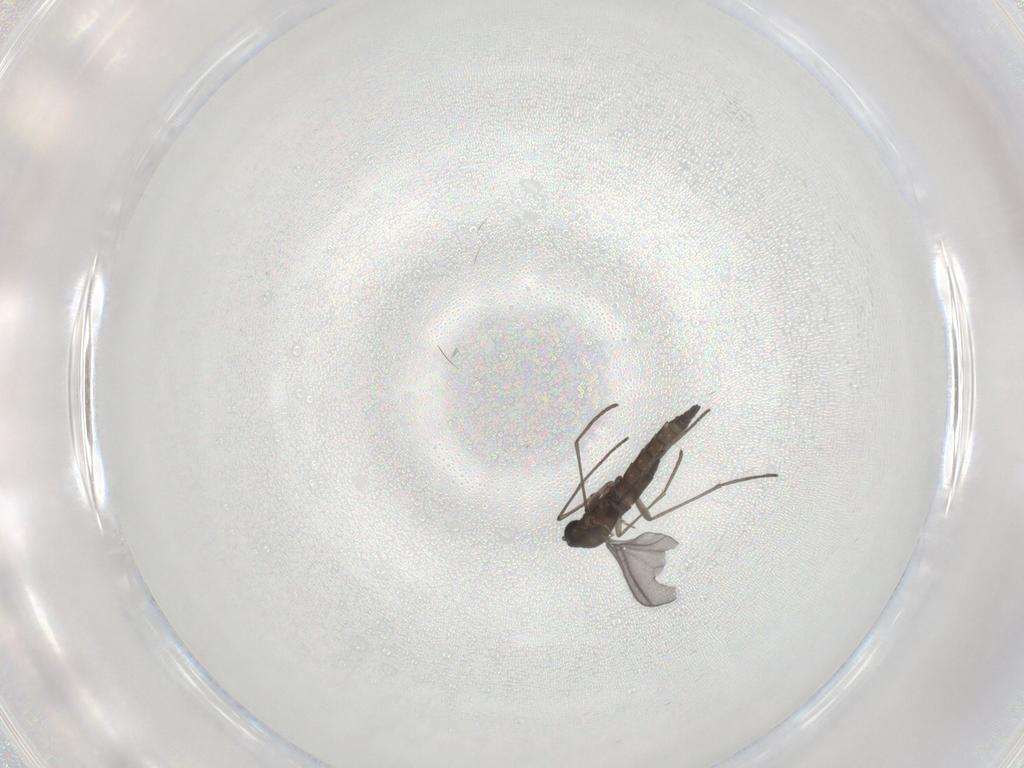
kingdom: Animalia
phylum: Arthropoda
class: Insecta
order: Diptera
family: Sciaridae
